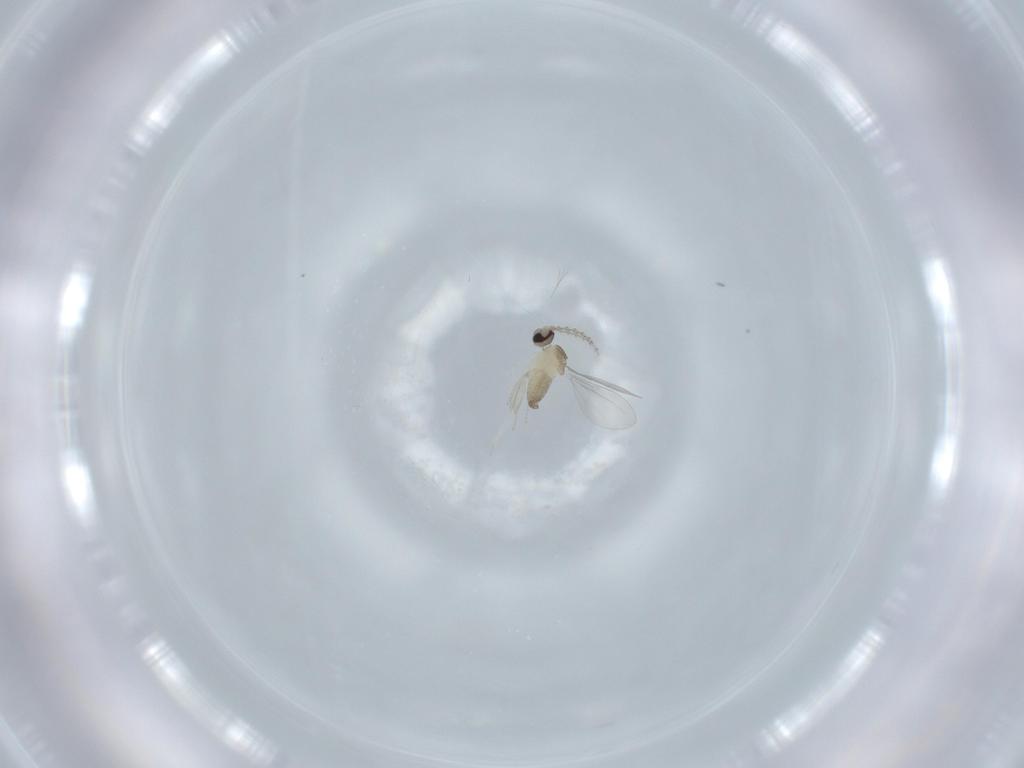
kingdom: Animalia
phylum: Arthropoda
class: Insecta
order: Diptera
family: Cecidomyiidae
